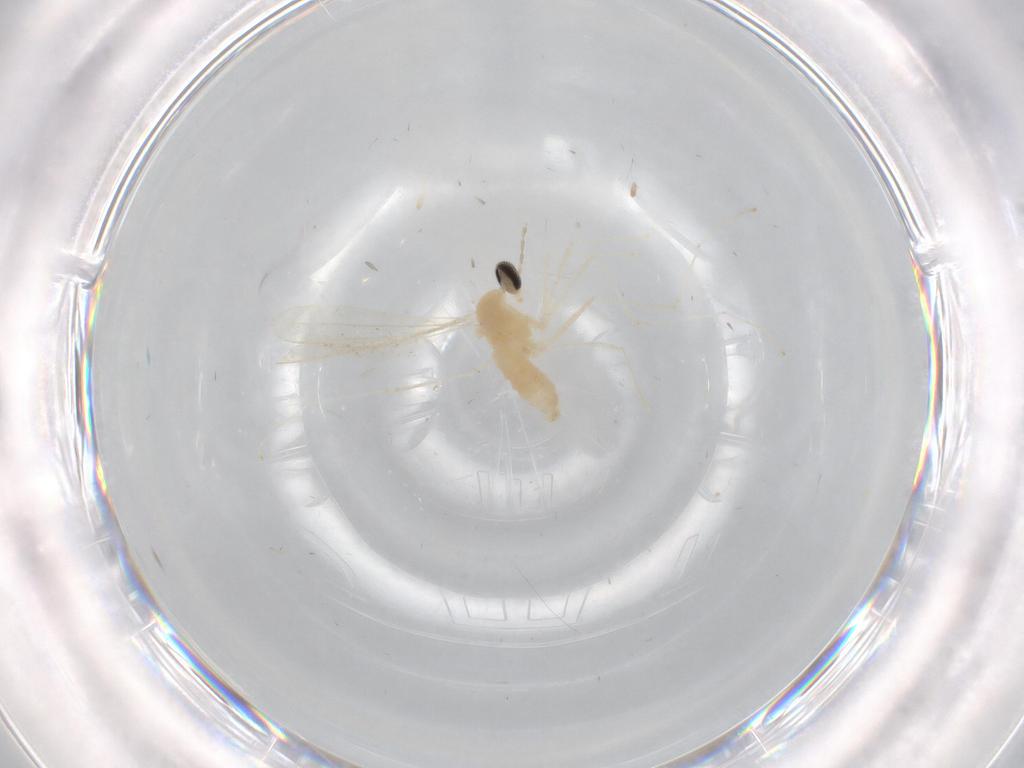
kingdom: Animalia
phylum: Arthropoda
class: Insecta
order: Diptera
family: Cecidomyiidae
